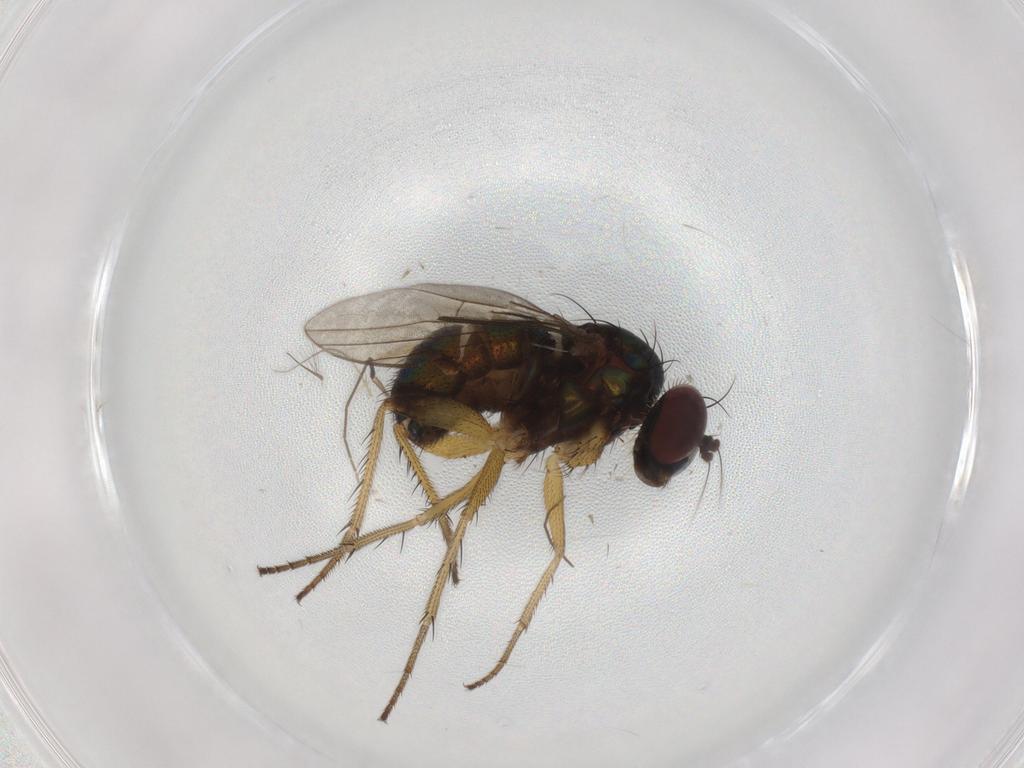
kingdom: Animalia
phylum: Arthropoda
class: Insecta
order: Diptera
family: Dolichopodidae
